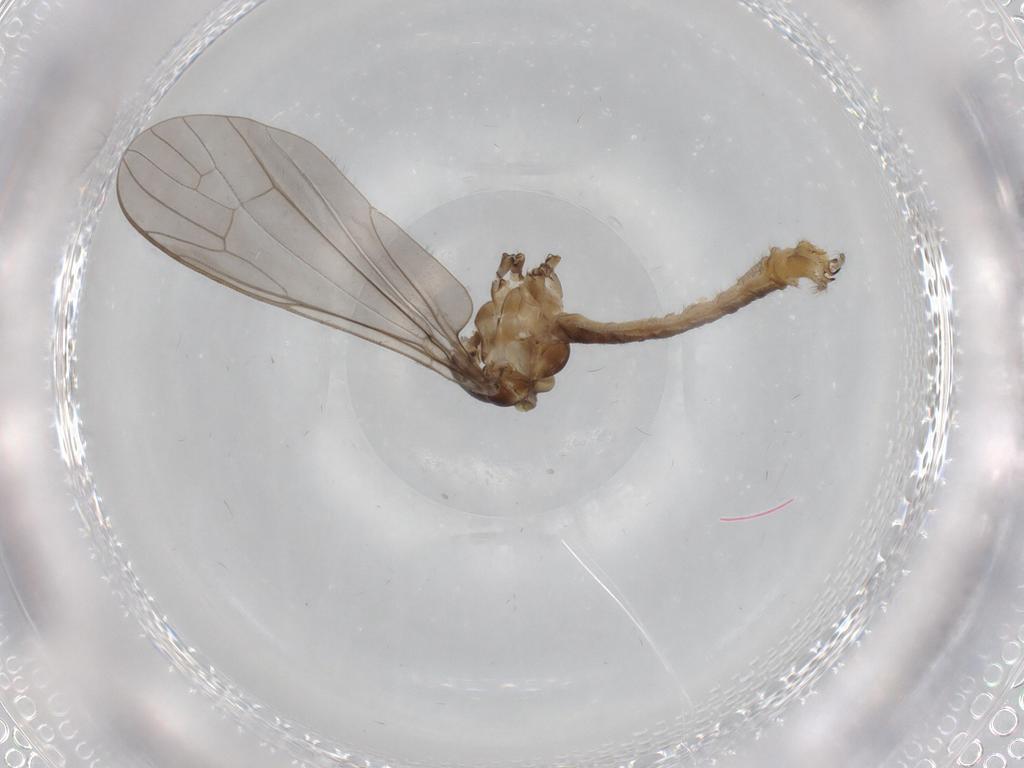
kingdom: Animalia
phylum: Arthropoda
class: Insecta
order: Diptera
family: Limoniidae
